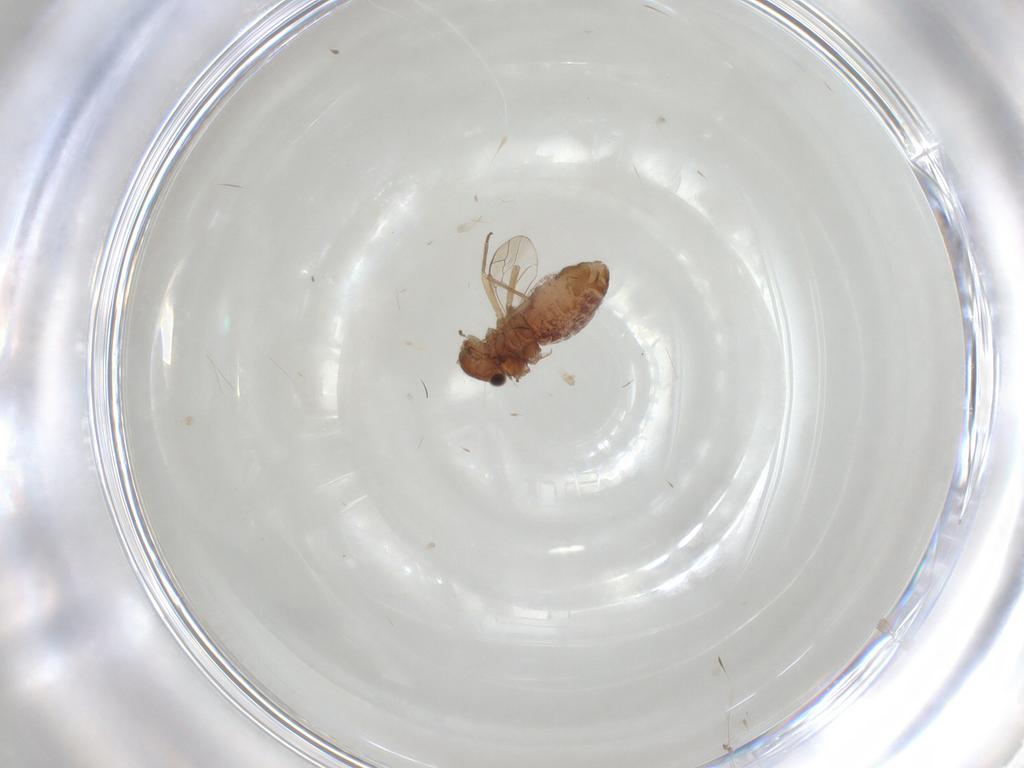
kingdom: Animalia
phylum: Arthropoda
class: Insecta
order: Psocodea
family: Lachesillidae
